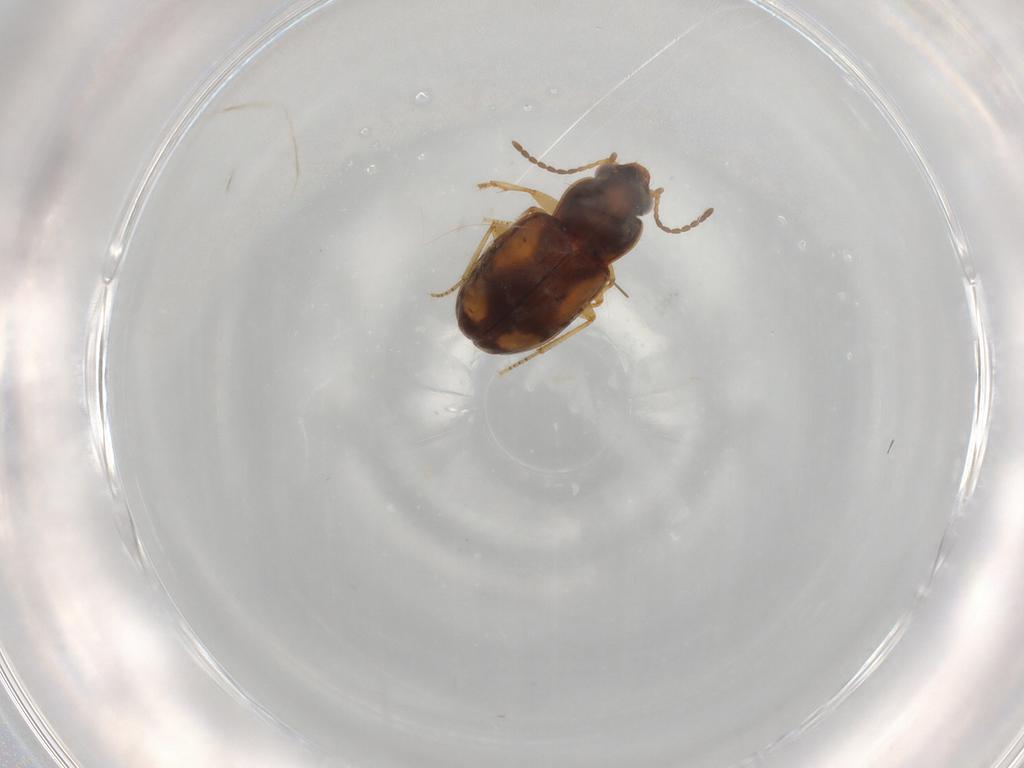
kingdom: Animalia
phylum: Arthropoda
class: Insecta
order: Coleoptera
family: Carabidae
